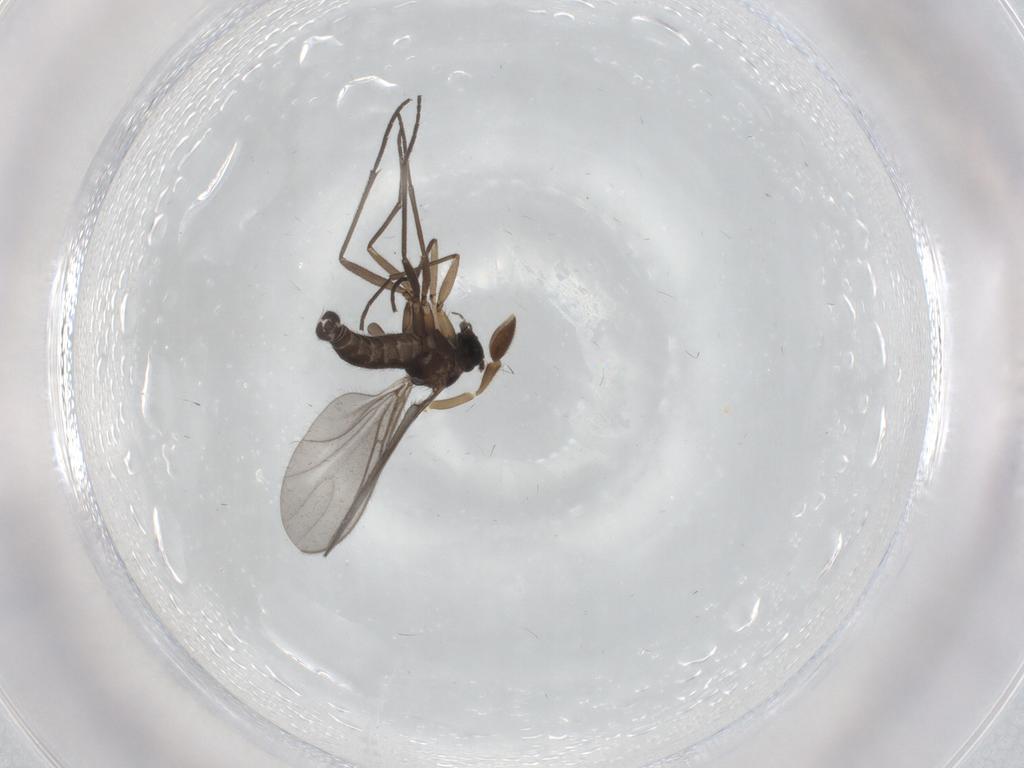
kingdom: Animalia
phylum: Arthropoda
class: Insecta
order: Diptera
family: Sciaridae
